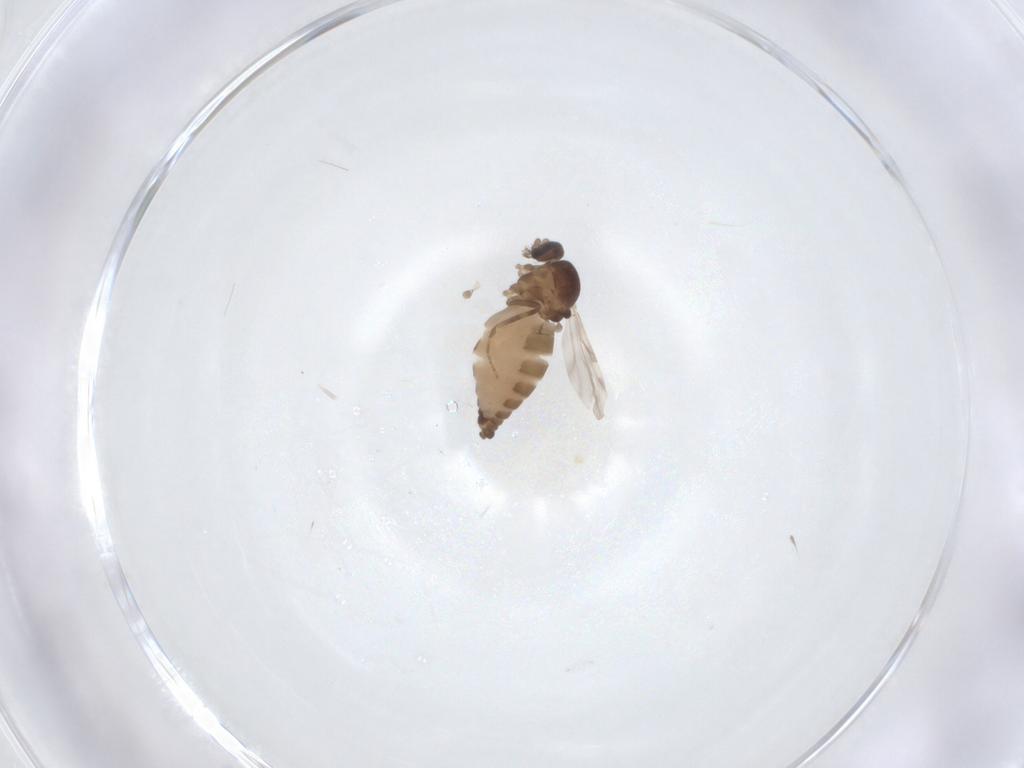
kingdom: Animalia
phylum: Arthropoda
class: Insecta
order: Diptera
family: Ceratopogonidae
